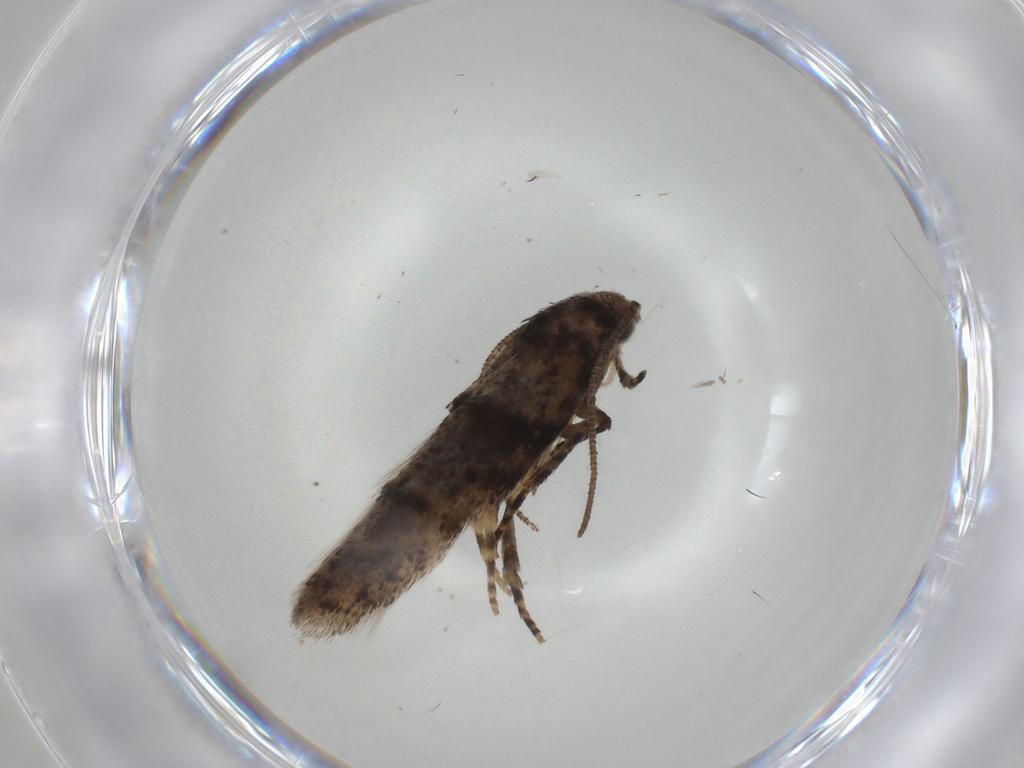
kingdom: Animalia
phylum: Arthropoda
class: Insecta
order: Lepidoptera
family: Gelechiidae
